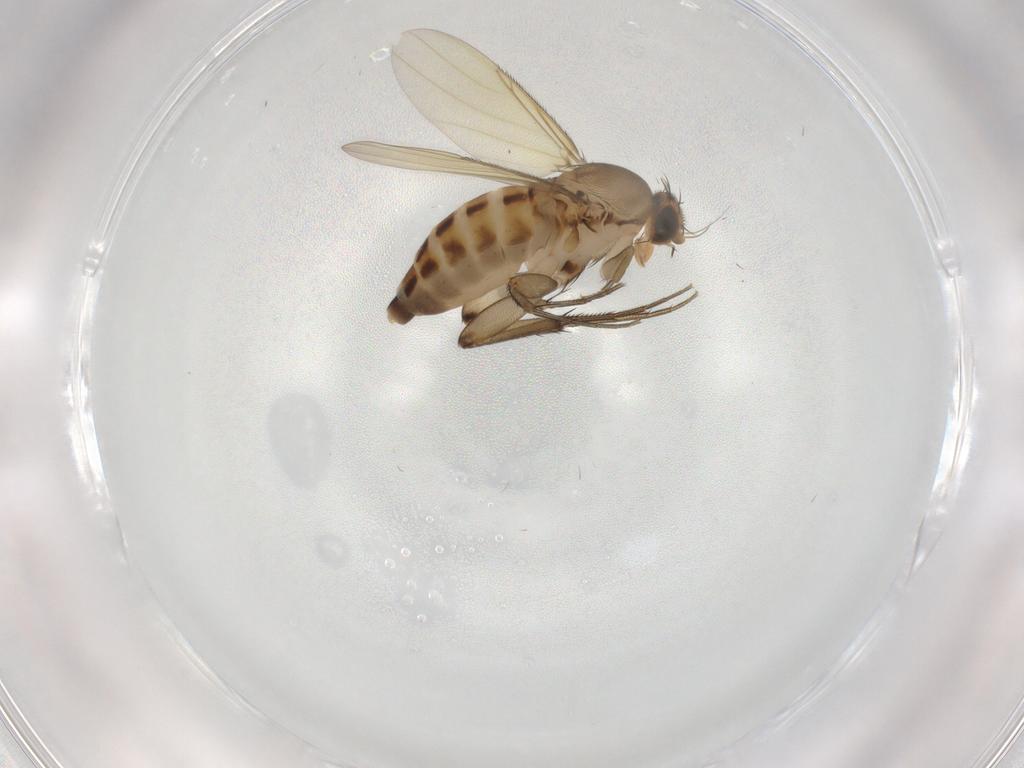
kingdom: Animalia
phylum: Arthropoda
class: Insecta
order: Diptera
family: Phoridae
